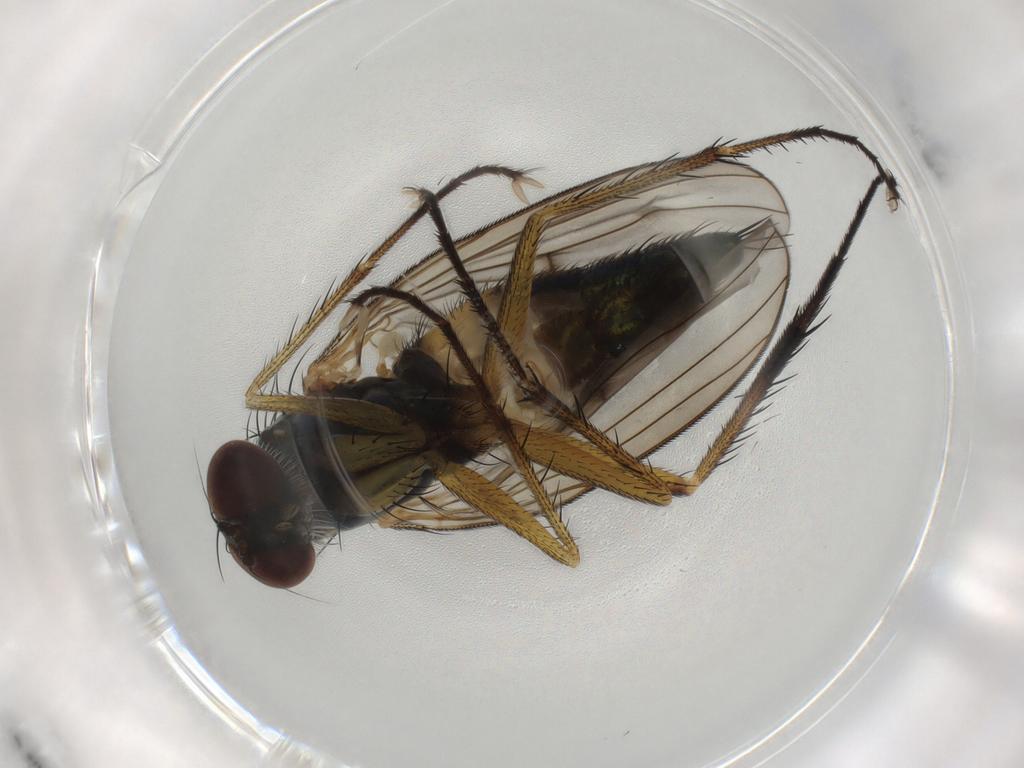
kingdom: Animalia
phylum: Arthropoda
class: Insecta
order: Diptera
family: Dolichopodidae
